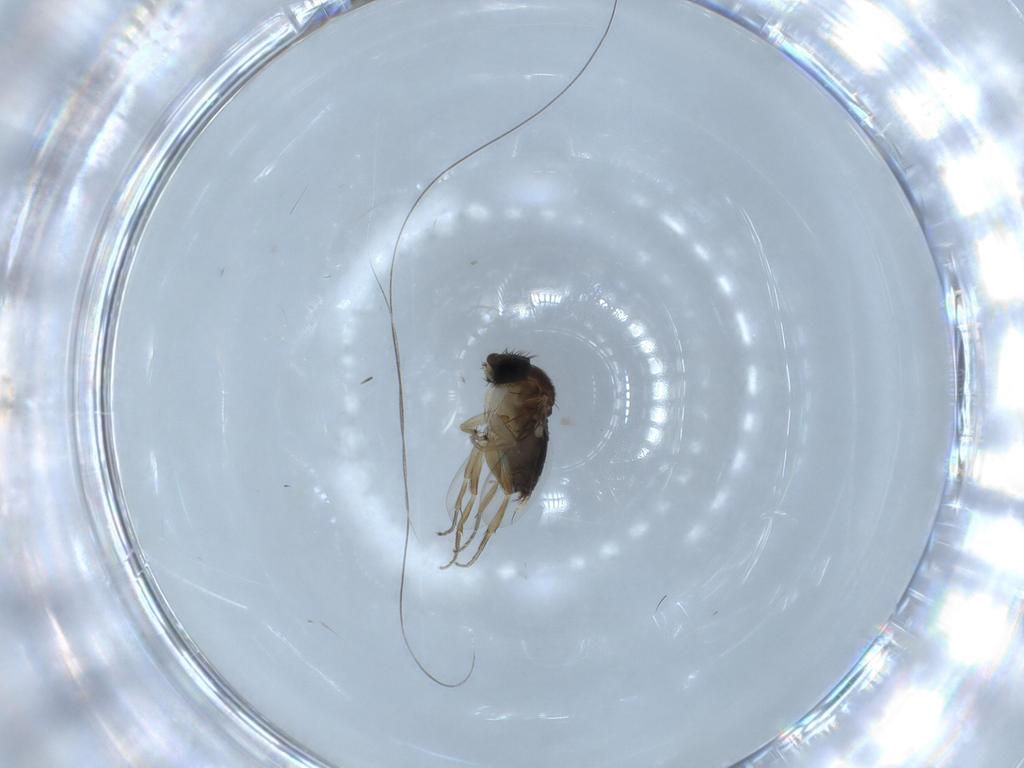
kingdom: Animalia
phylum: Arthropoda
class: Insecta
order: Diptera
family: Phoridae
